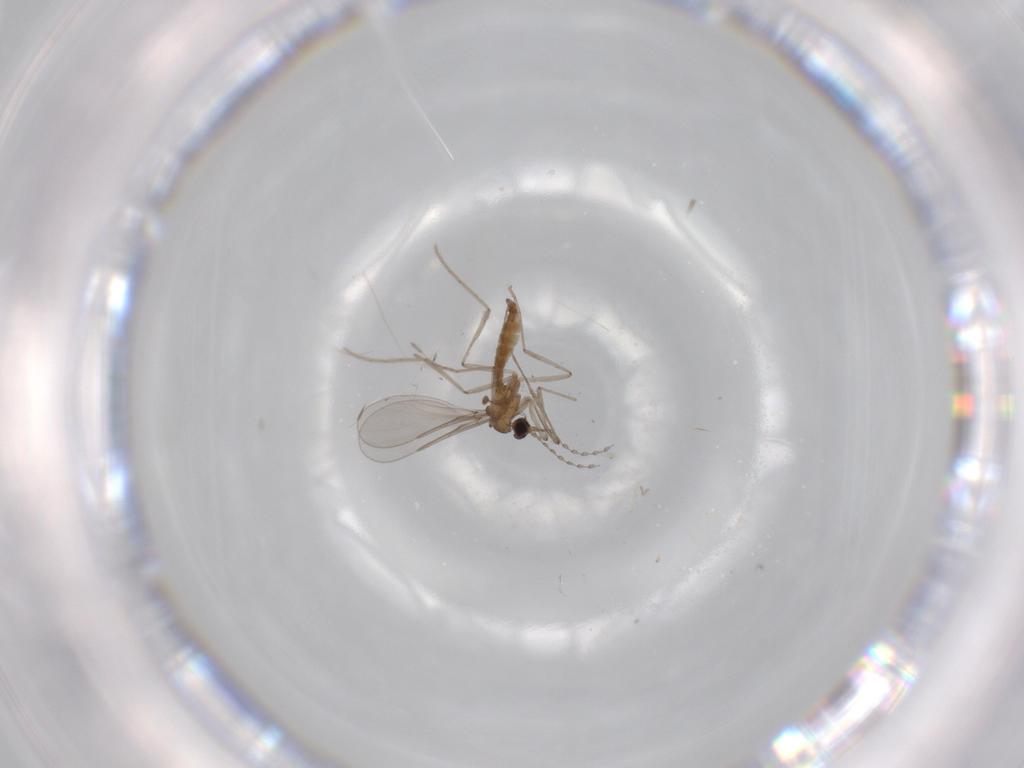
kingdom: Animalia
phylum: Arthropoda
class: Insecta
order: Diptera
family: Cecidomyiidae
